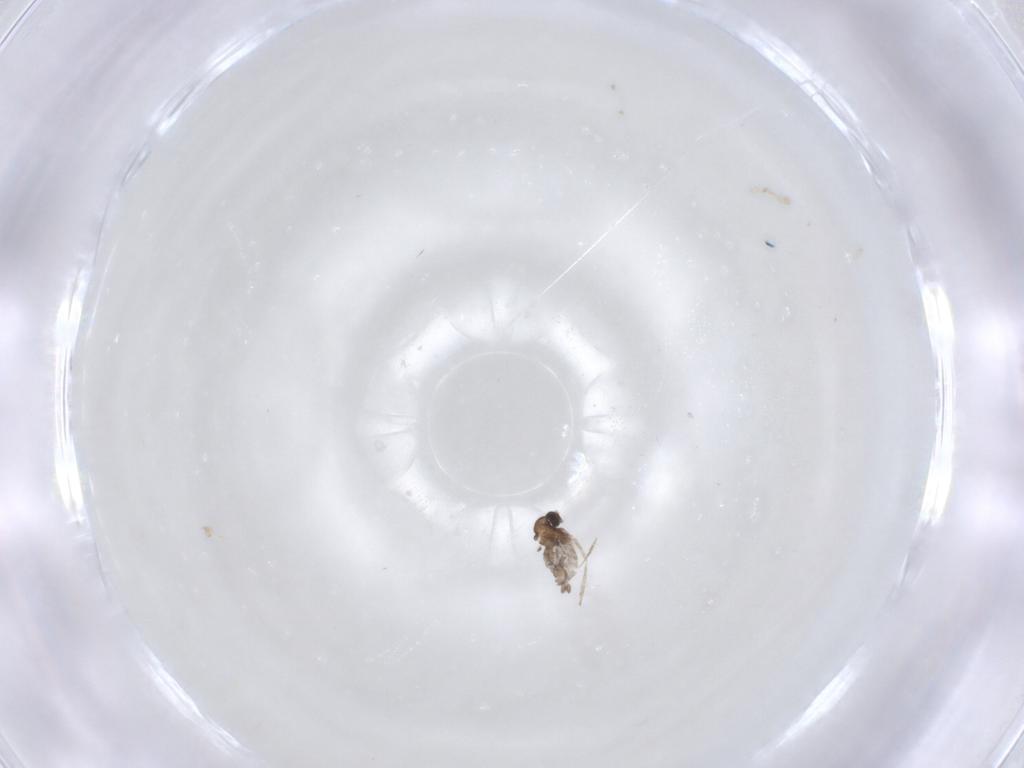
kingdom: Animalia
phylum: Arthropoda
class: Insecta
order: Diptera
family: Cecidomyiidae
